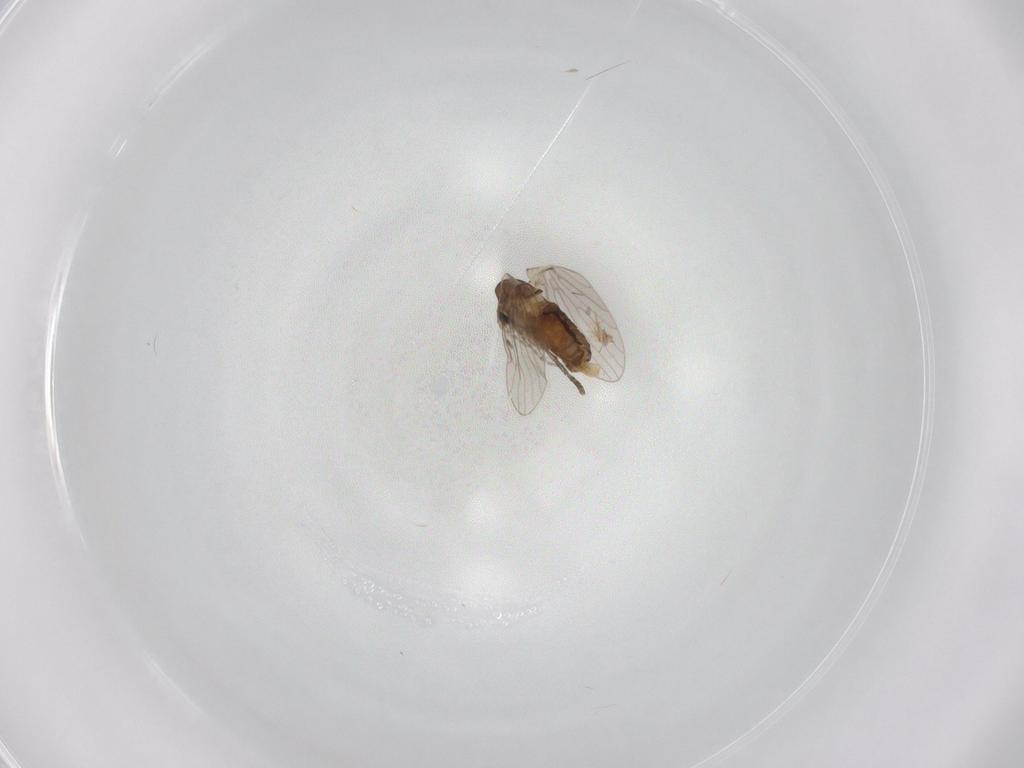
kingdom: Animalia
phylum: Arthropoda
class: Insecta
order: Diptera
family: Psychodidae
